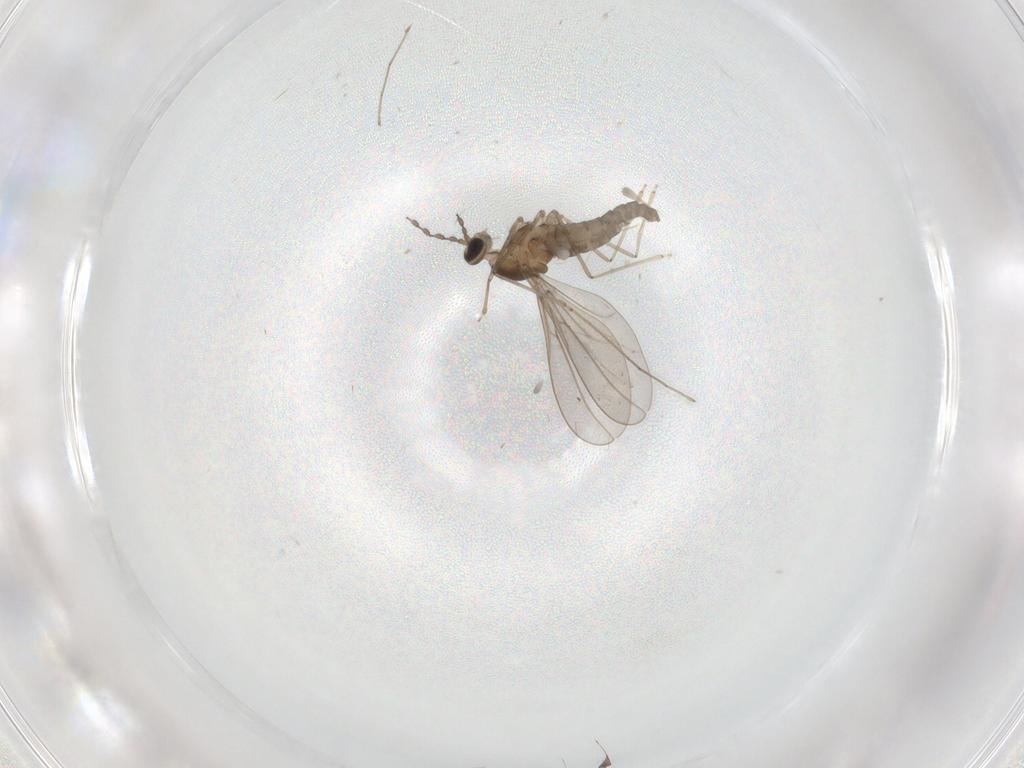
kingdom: Animalia
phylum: Arthropoda
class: Insecta
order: Diptera
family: Cecidomyiidae
